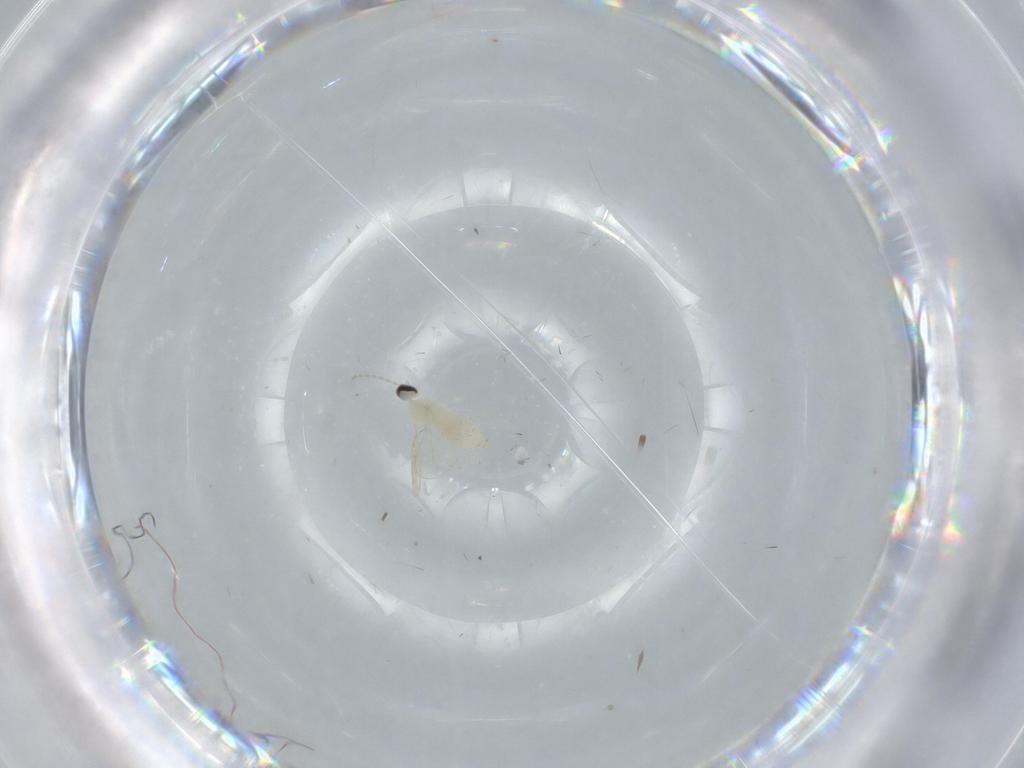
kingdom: Animalia
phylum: Arthropoda
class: Insecta
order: Diptera
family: Cecidomyiidae
